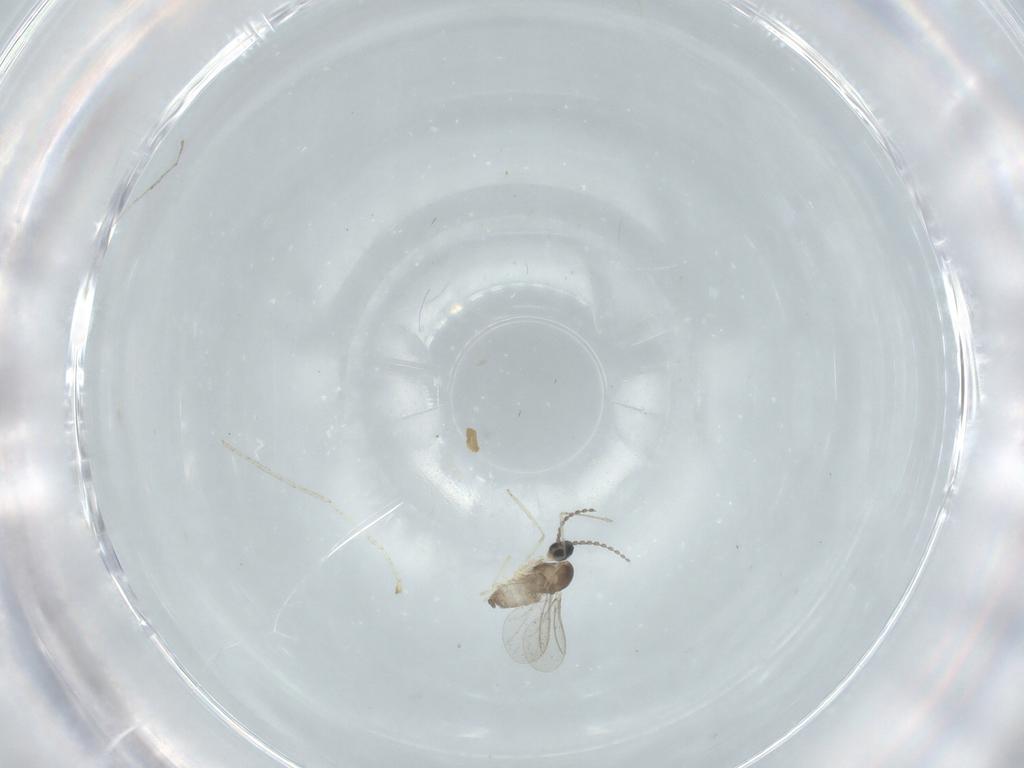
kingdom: Animalia
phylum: Arthropoda
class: Insecta
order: Diptera
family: Cecidomyiidae
